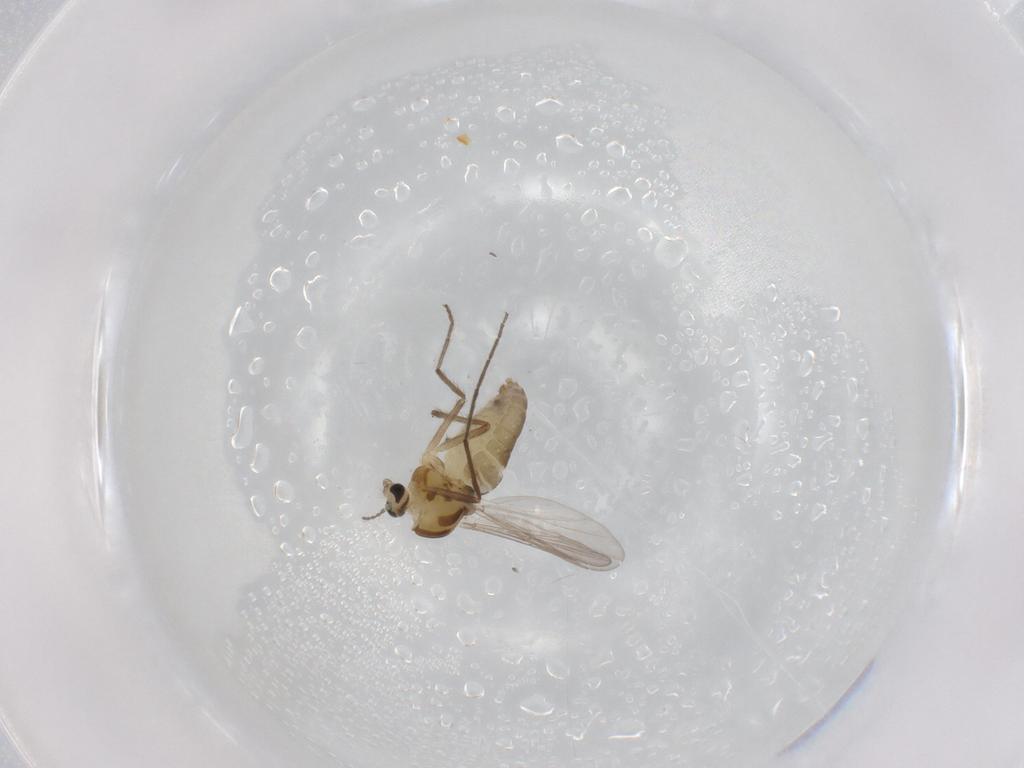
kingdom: Animalia
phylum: Arthropoda
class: Insecta
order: Diptera
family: Chironomidae
